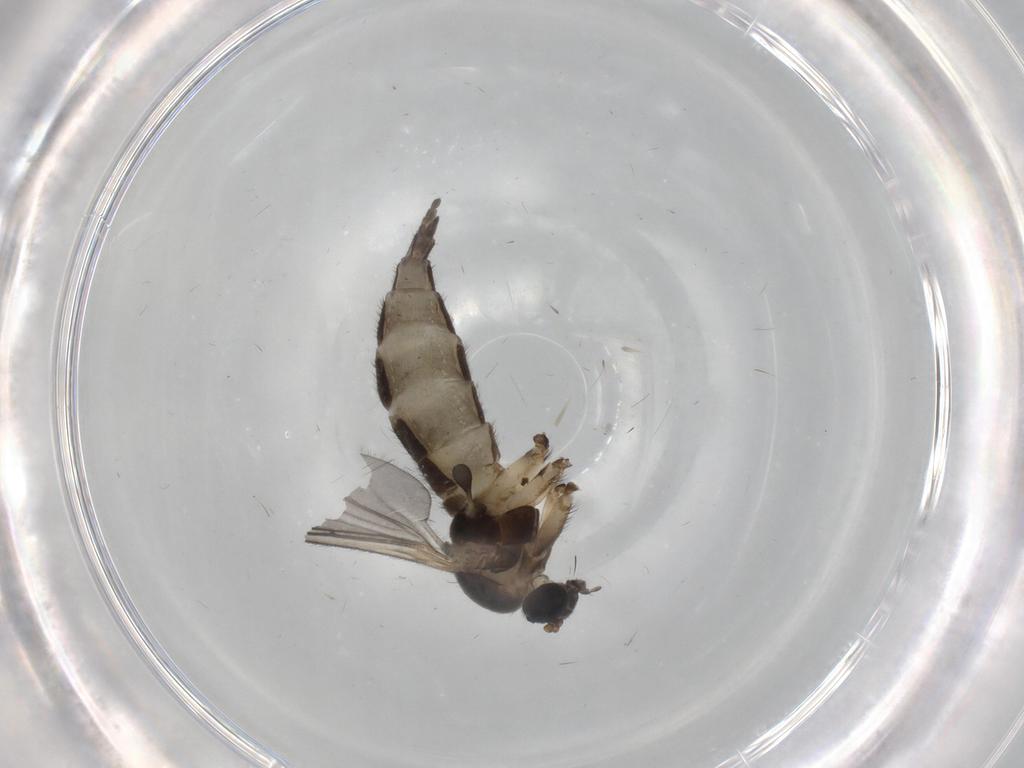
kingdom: Animalia
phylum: Arthropoda
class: Insecta
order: Diptera
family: Sciaridae
